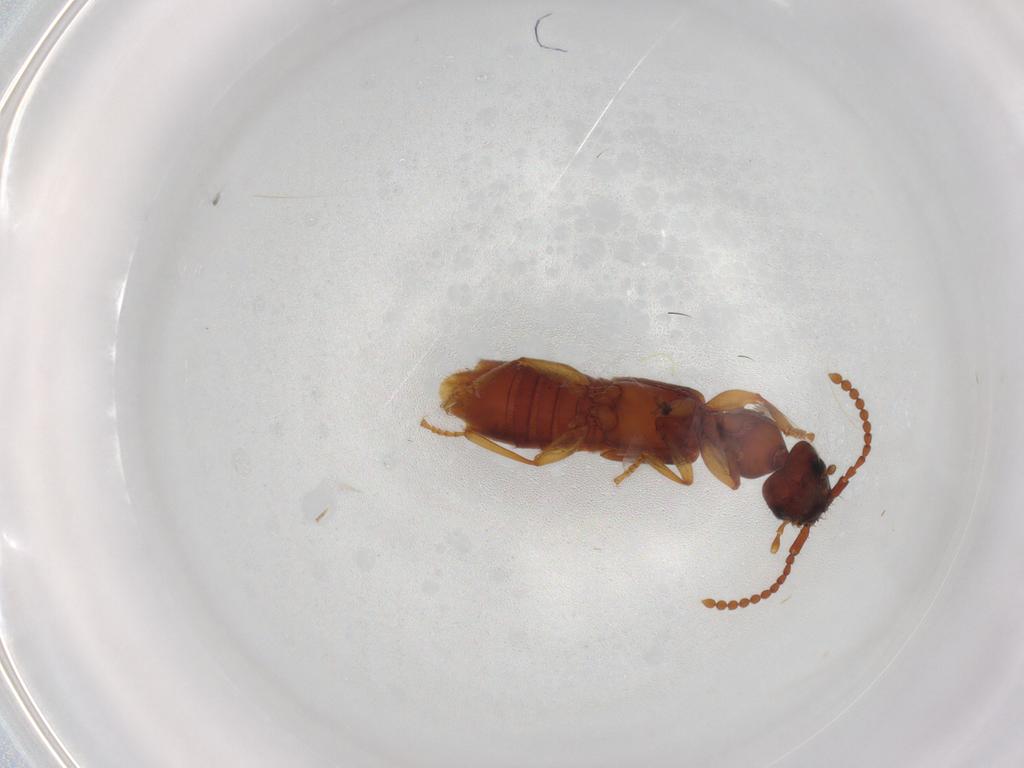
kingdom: Animalia
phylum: Arthropoda
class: Insecta
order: Coleoptera
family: Staphylinidae
